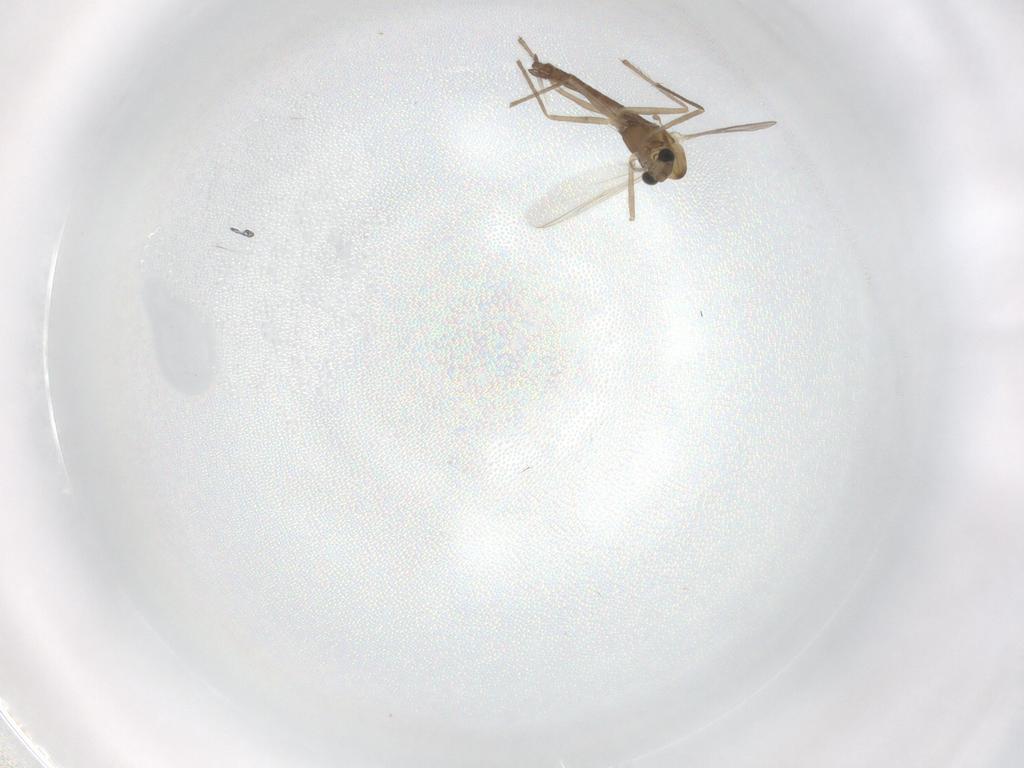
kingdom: Animalia
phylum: Arthropoda
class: Insecta
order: Diptera
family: Chironomidae
